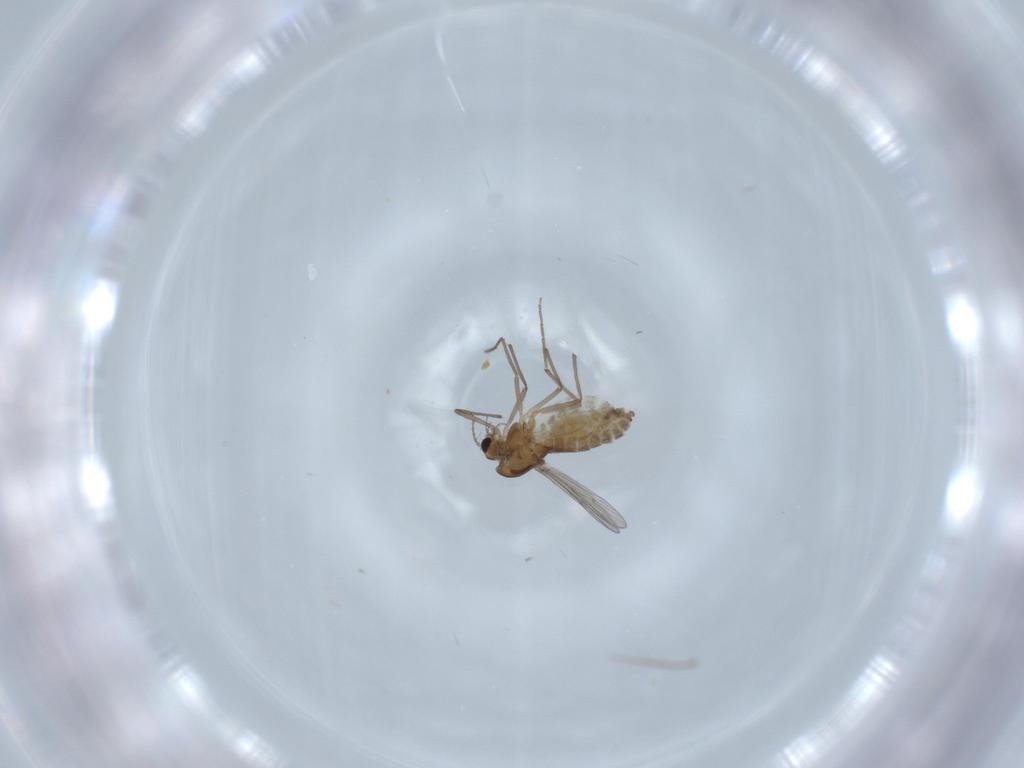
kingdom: Animalia
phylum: Arthropoda
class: Insecta
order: Diptera
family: Chironomidae
